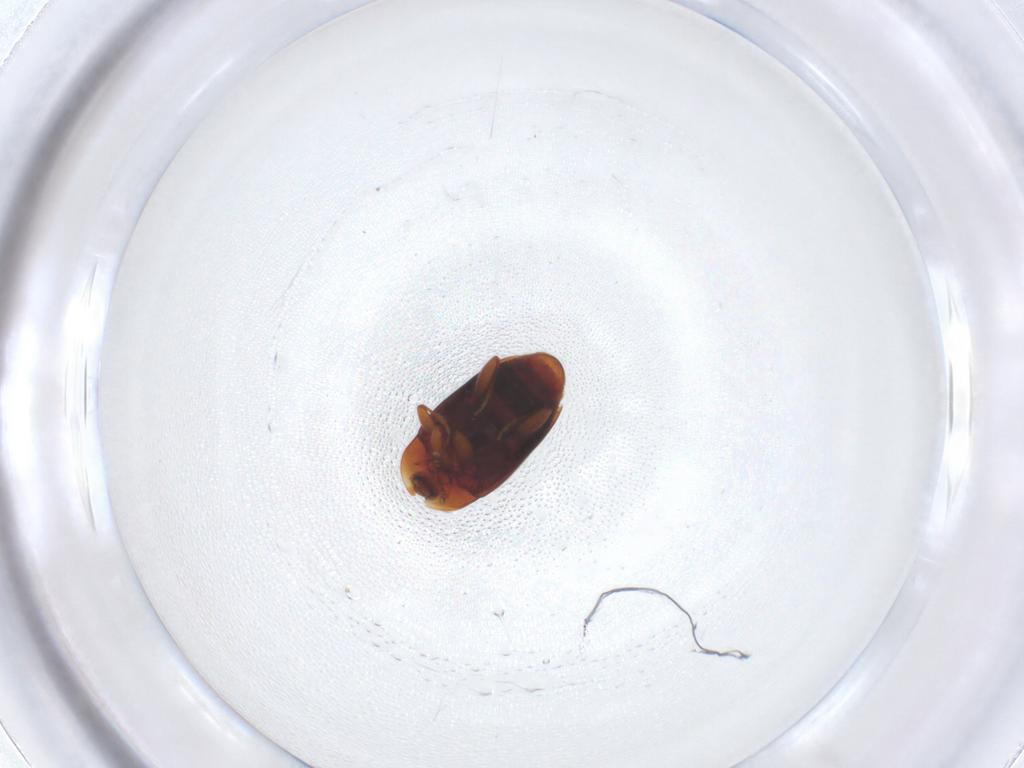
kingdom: Animalia
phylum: Arthropoda
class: Insecta
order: Coleoptera
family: Corylophidae
